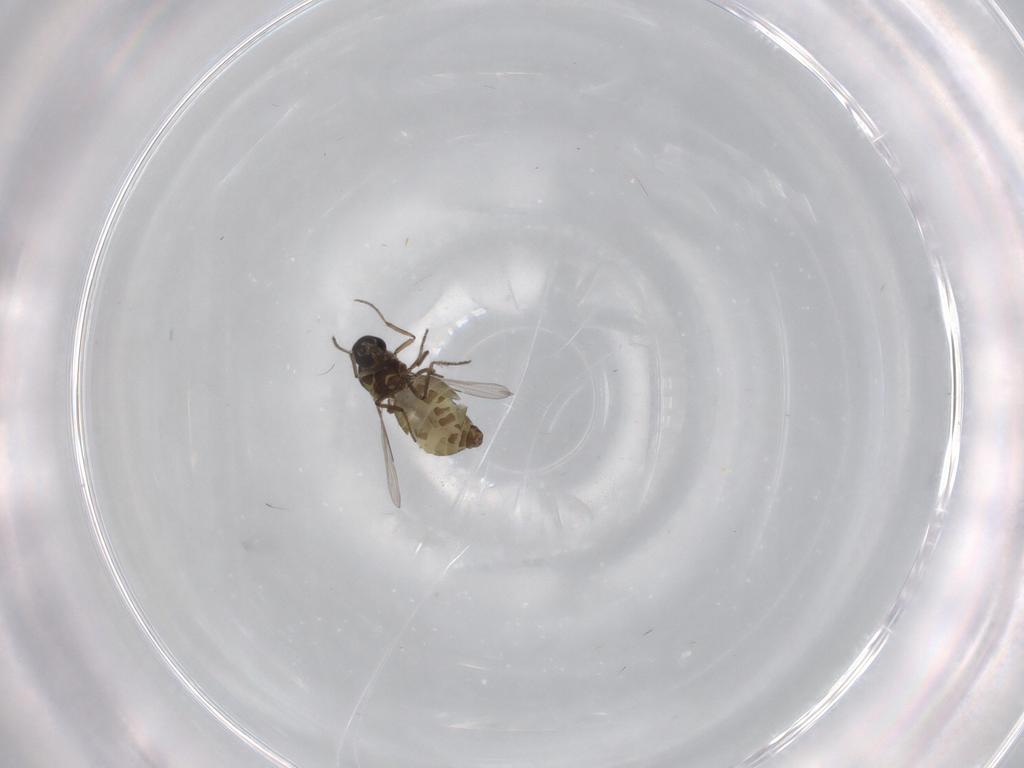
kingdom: Animalia
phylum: Arthropoda
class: Insecta
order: Diptera
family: Ceratopogonidae
